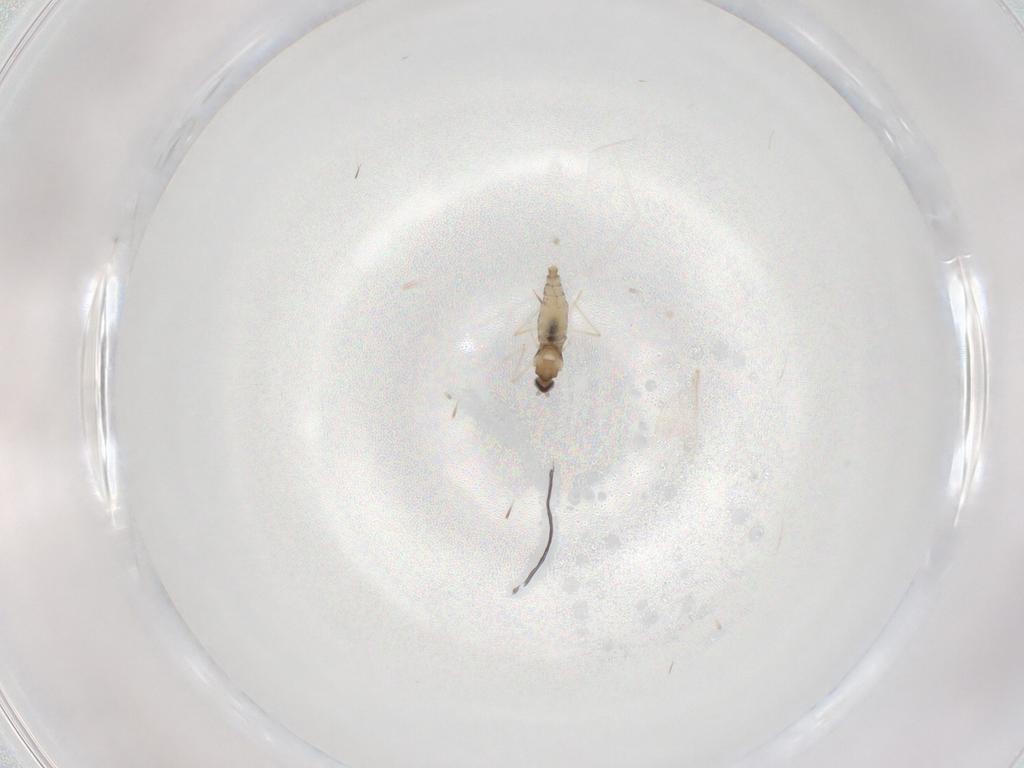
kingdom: Animalia
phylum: Arthropoda
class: Insecta
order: Diptera
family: Cecidomyiidae
